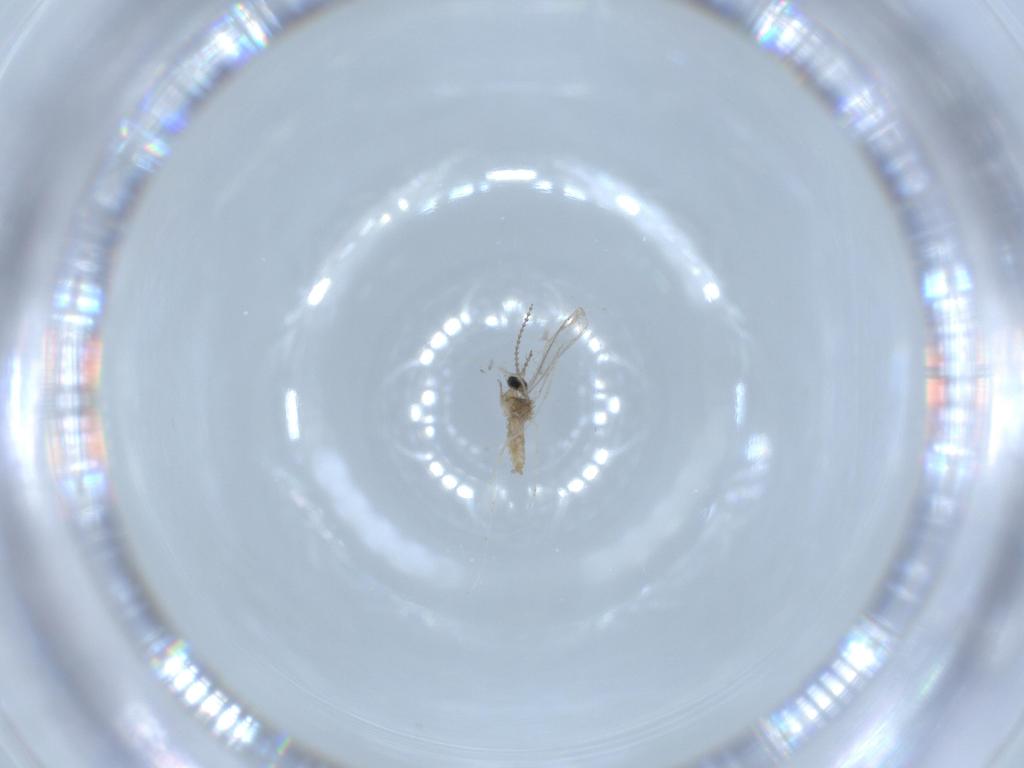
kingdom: Animalia
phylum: Arthropoda
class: Insecta
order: Diptera
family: Cecidomyiidae
